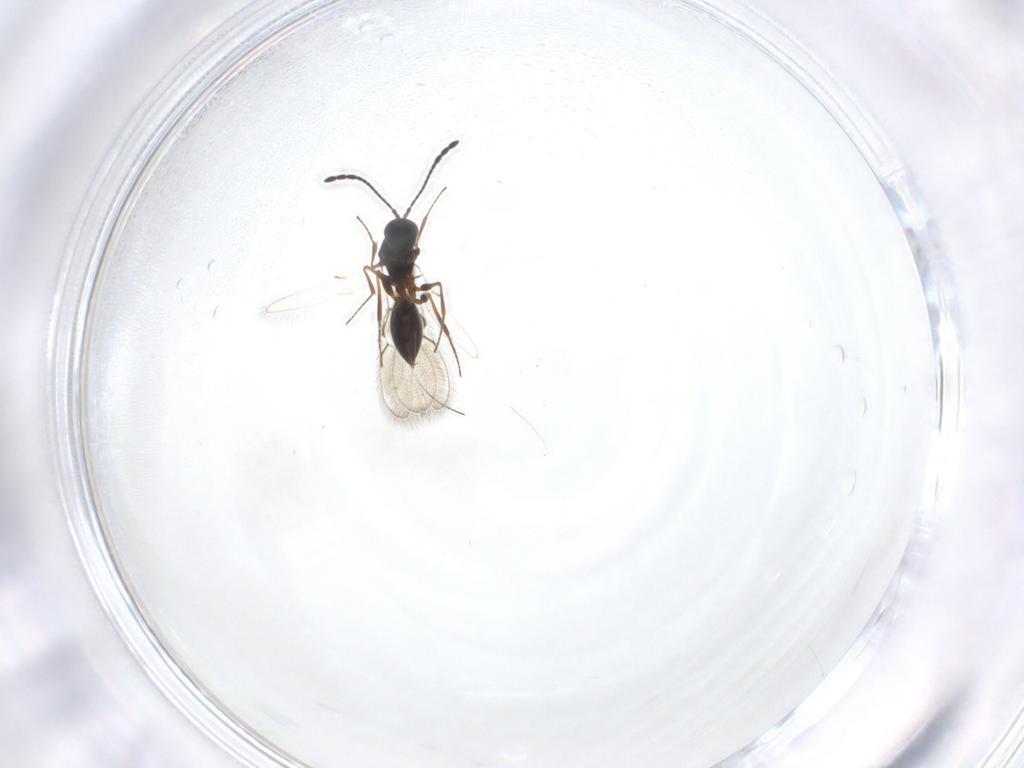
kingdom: Animalia
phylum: Arthropoda
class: Insecta
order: Hymenoptera
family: Figitidae
